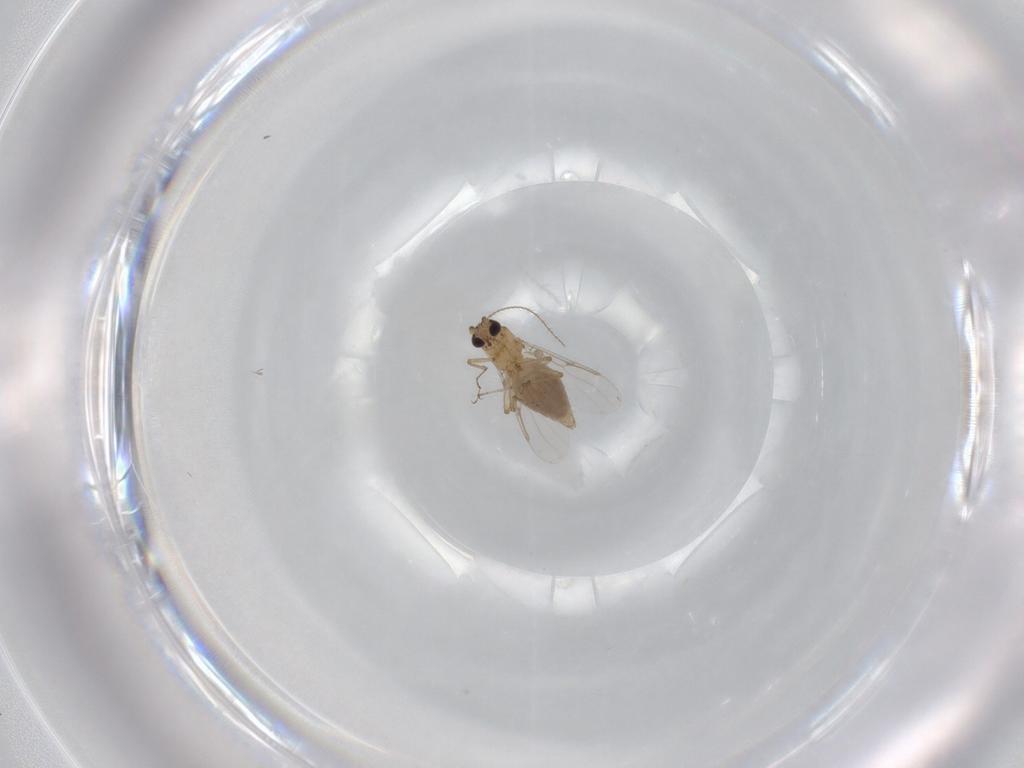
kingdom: Animalia
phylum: Arthropoda
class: Insecta
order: Diptera
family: Ceratopogonidae
